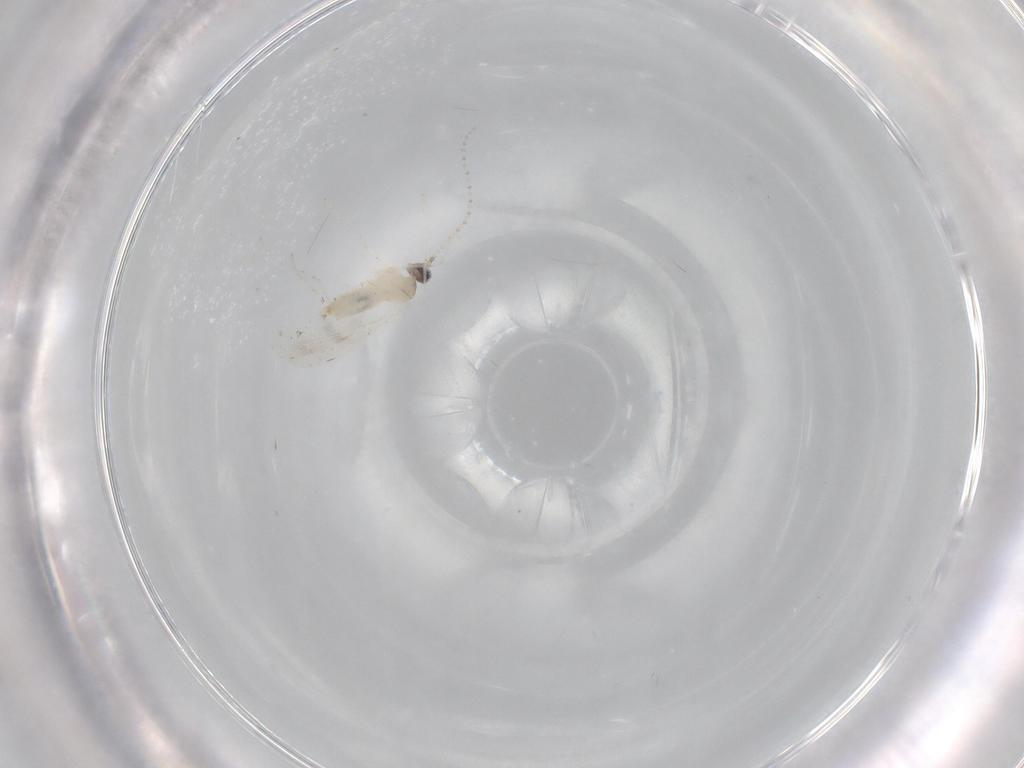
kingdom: Animalia
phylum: Arthropoda
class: Insecta
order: Diptera
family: Cecidomyiidae
